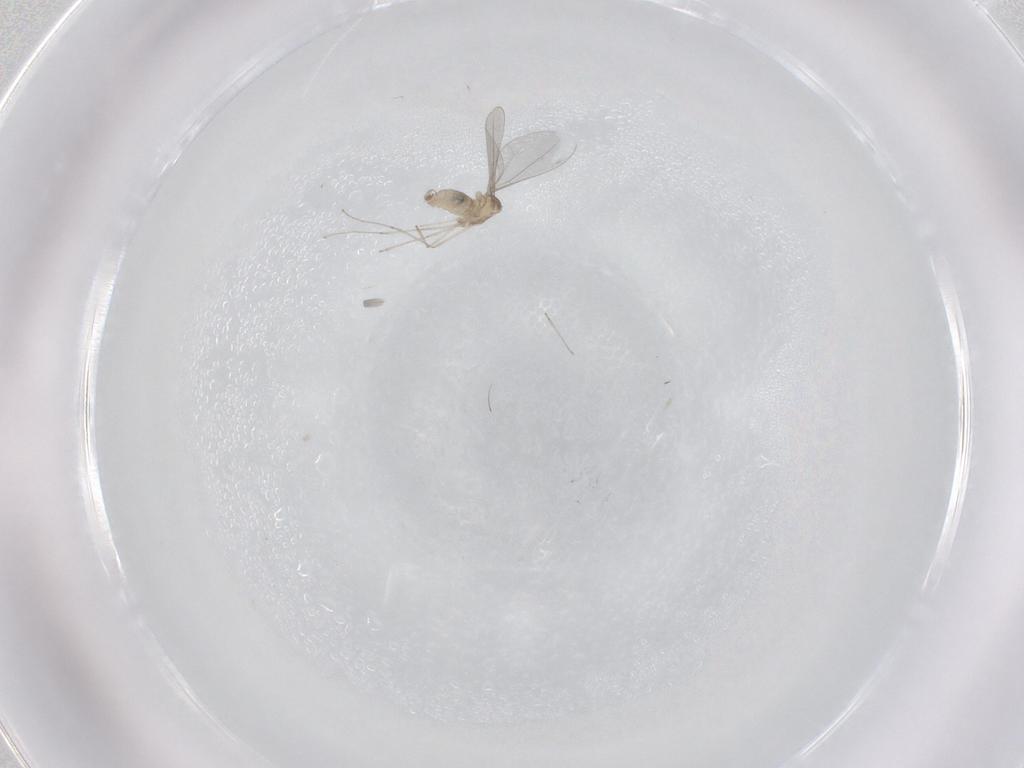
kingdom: Animalia
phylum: Arthropoda
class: Insecta
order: Diptera
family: Cecidomyiidae
